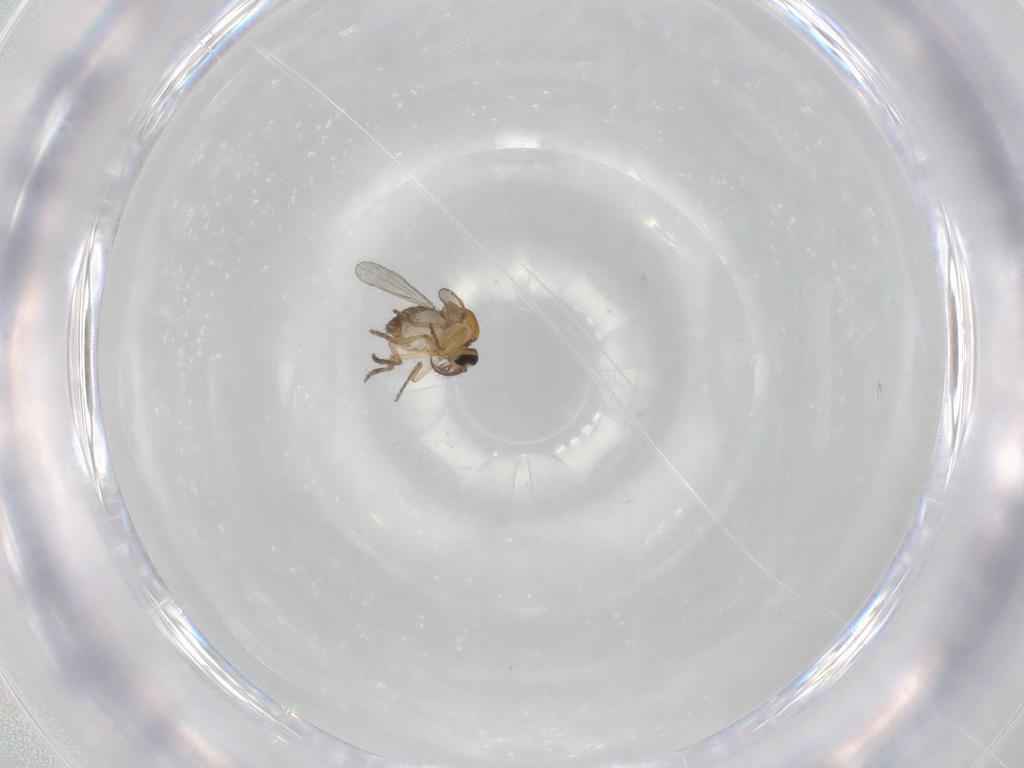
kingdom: Animalia
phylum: Arthropoda
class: Insecta
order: Diptera
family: Ceratopogonidae
